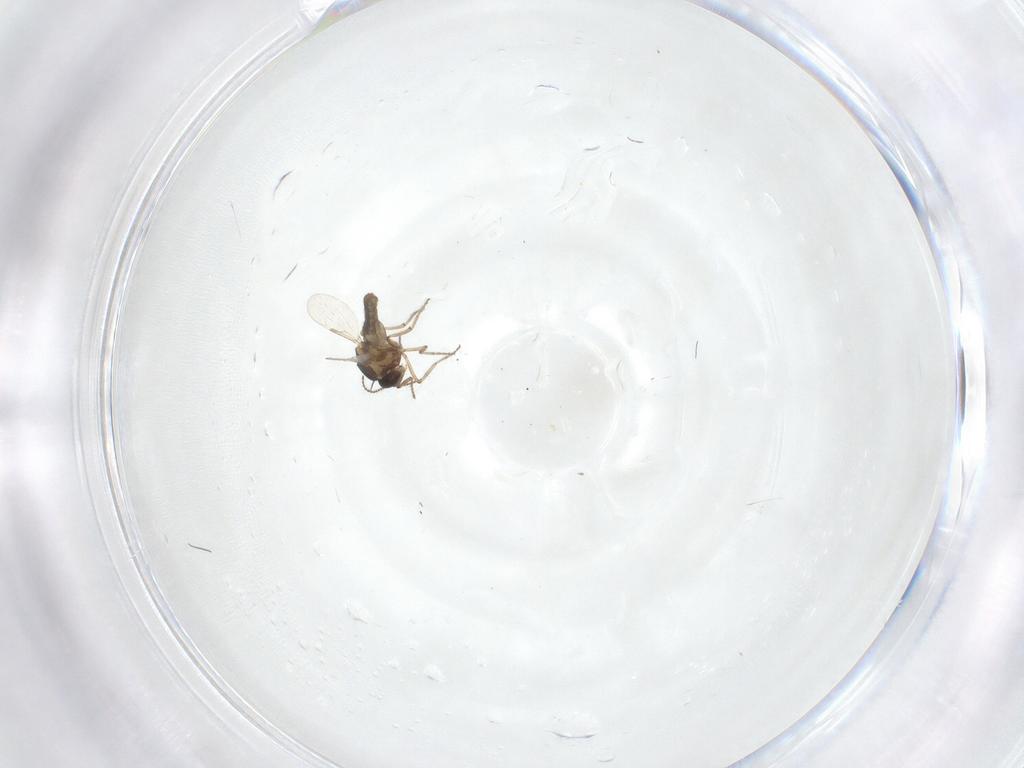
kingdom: Animalia
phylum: Arthropoda
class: Insecta
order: Diptera
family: Ceratopogonidae
